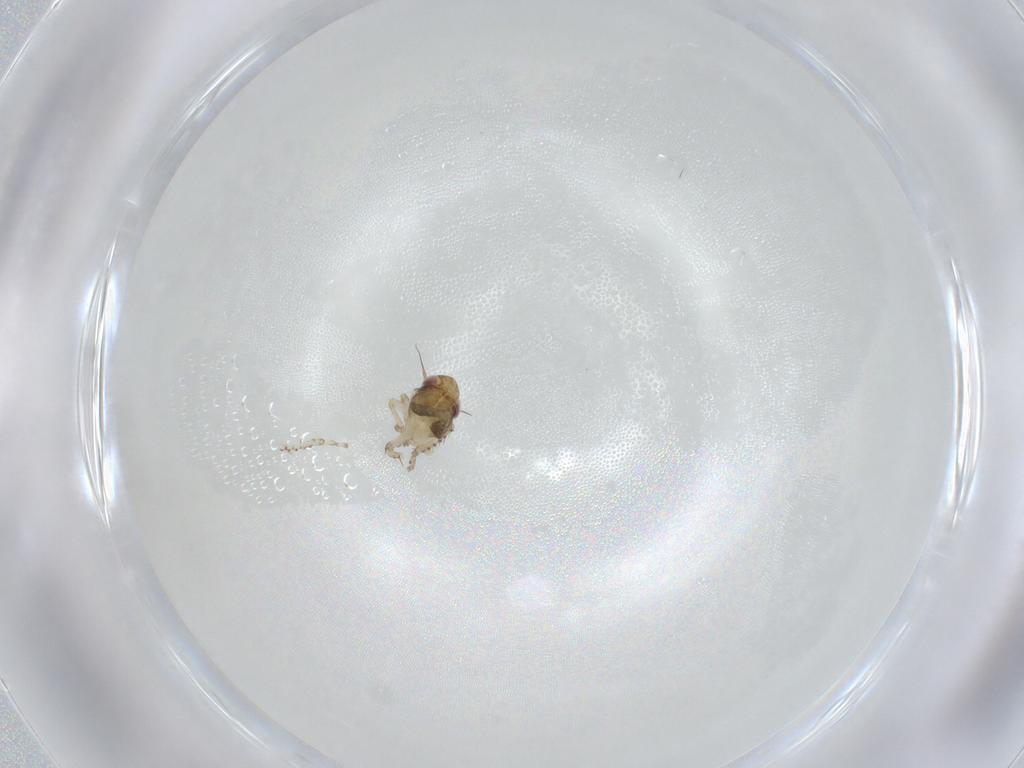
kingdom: Animalia
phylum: Arthropoda
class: Insecta
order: Hemiptera
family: Cicadellidae
